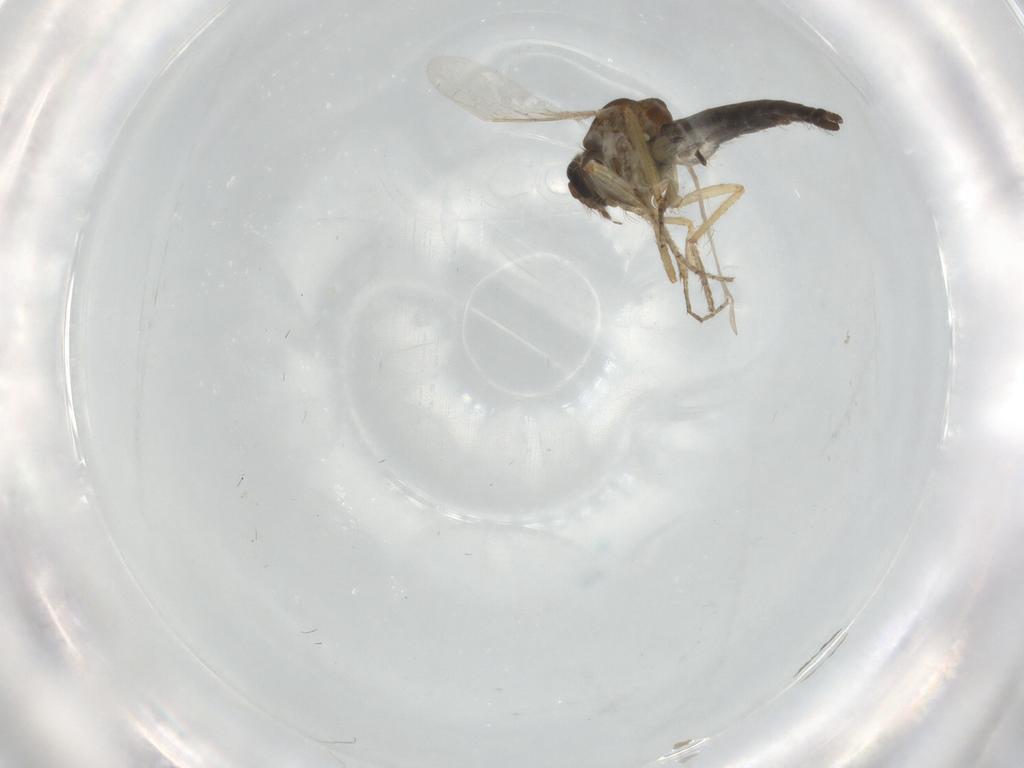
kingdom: Animalia
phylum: Arthropoda
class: Insecta
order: Diptera
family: Ceratopogonidae
